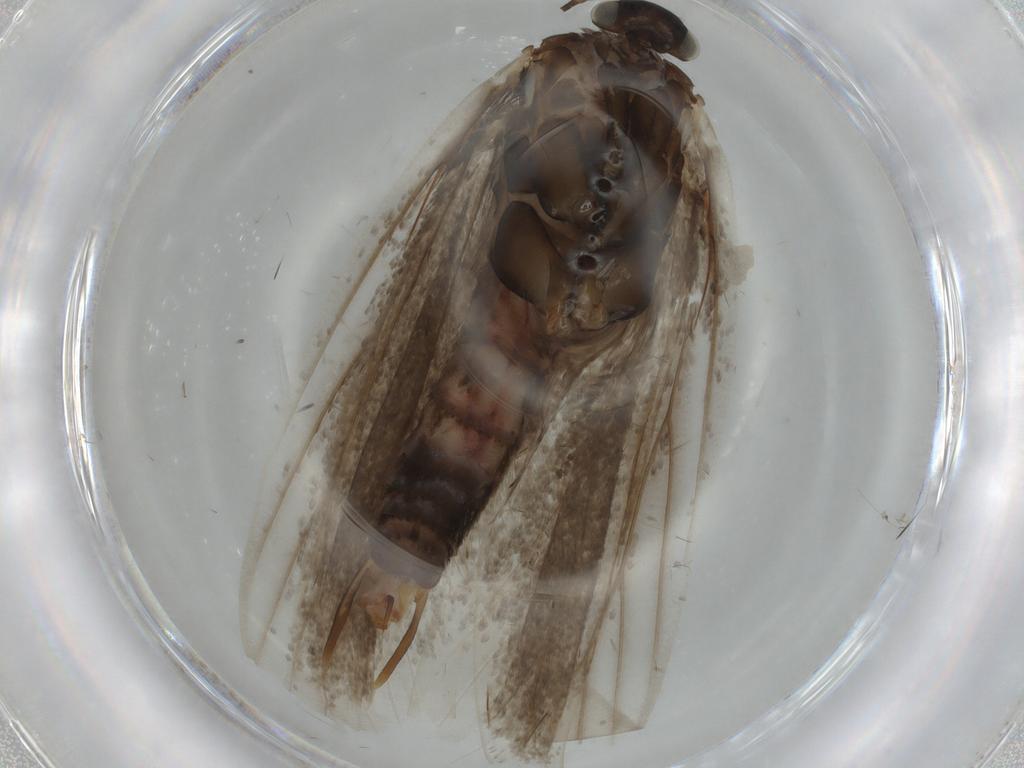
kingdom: Animalia
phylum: Arthropoda
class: Insecta
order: Lepidoptera
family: Gelechiidae
